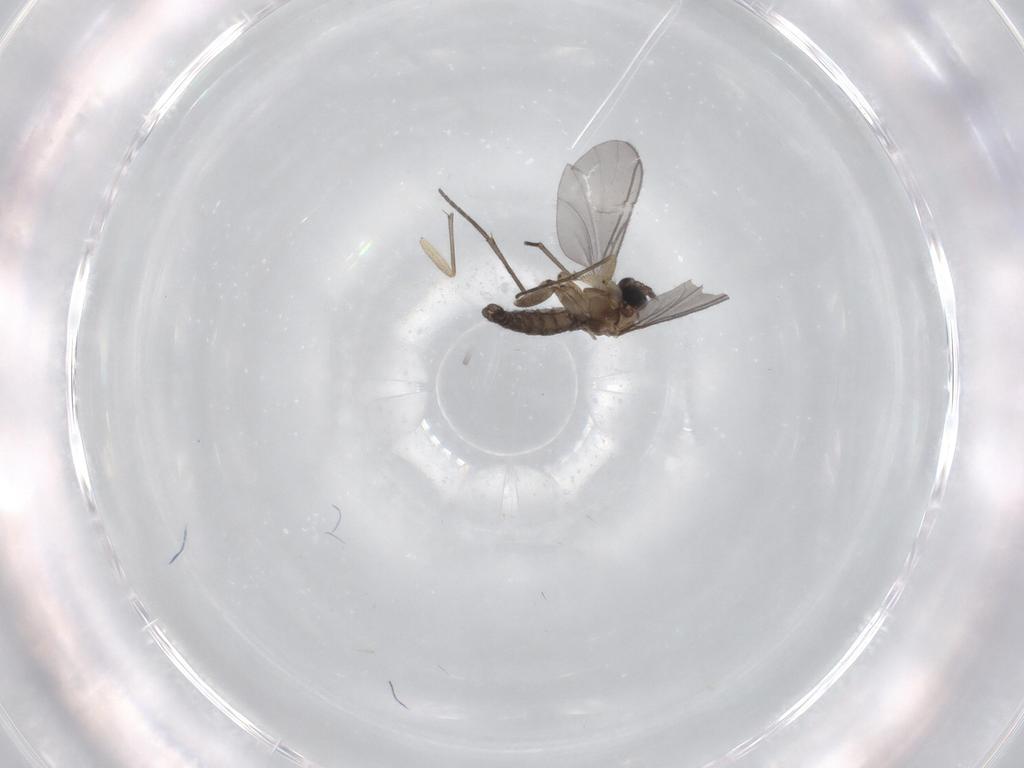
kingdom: Animalia
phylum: Arthropoda
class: Insecta
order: Diptera
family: Sciaridae
